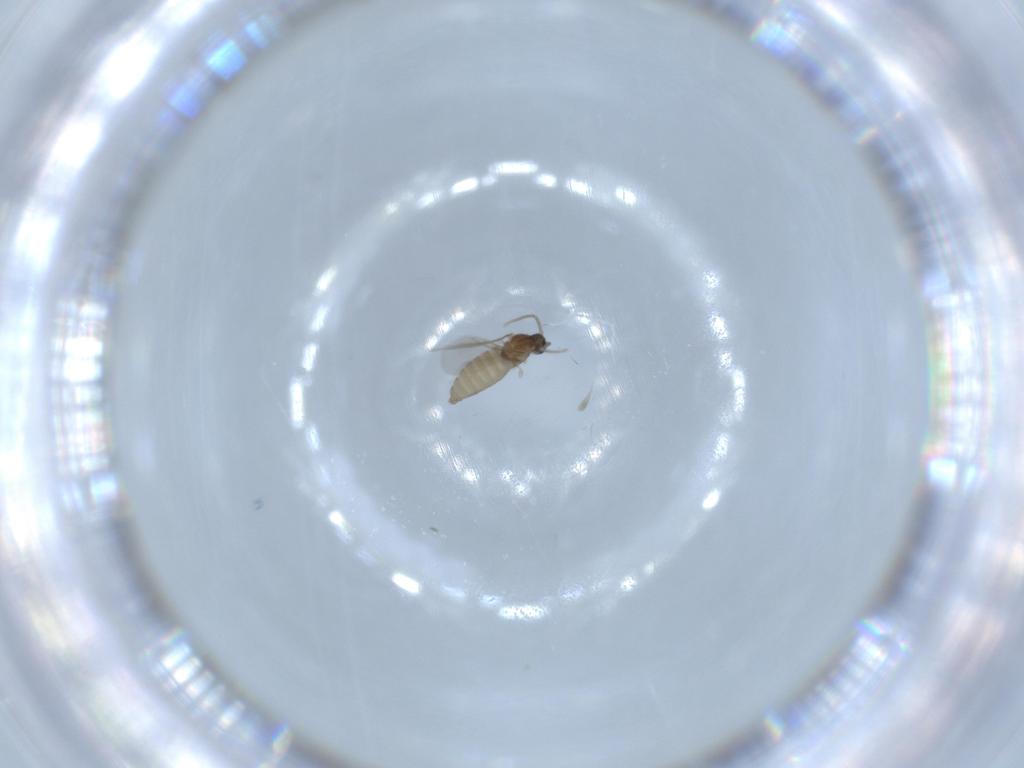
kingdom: Animalia
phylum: Arthropoda
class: Insecta
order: Diptera
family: Cecidomyiidae
